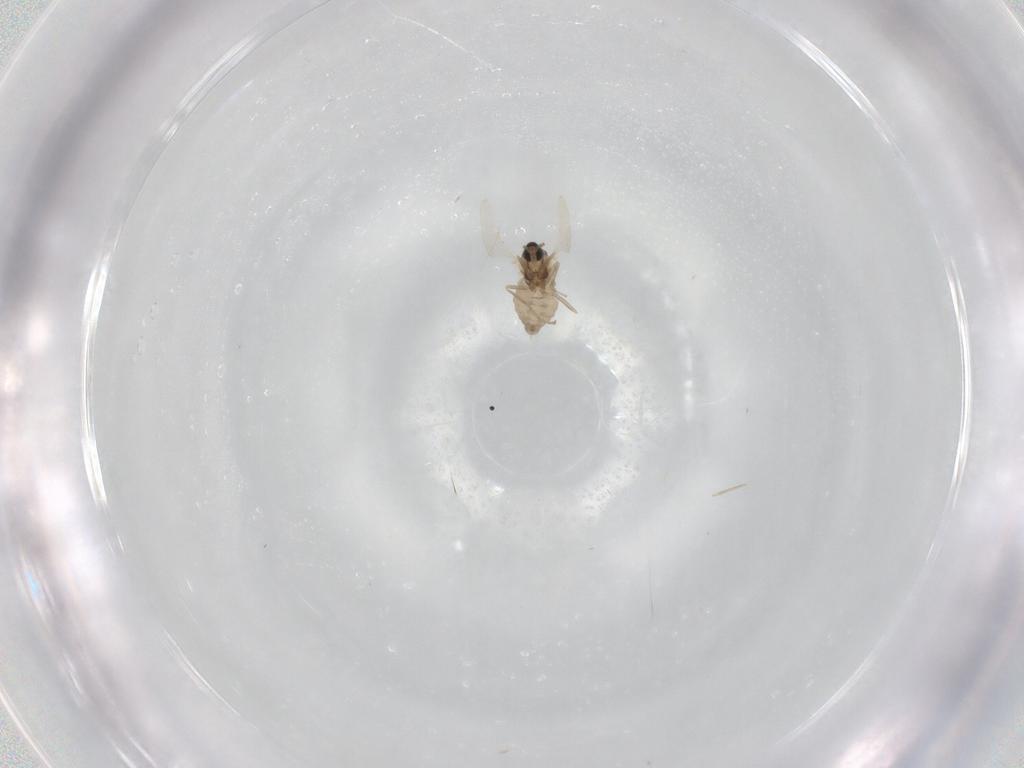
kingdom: Animalia
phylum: Arthropoda
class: Insecta
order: Diptera
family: Cecidomyiidae
